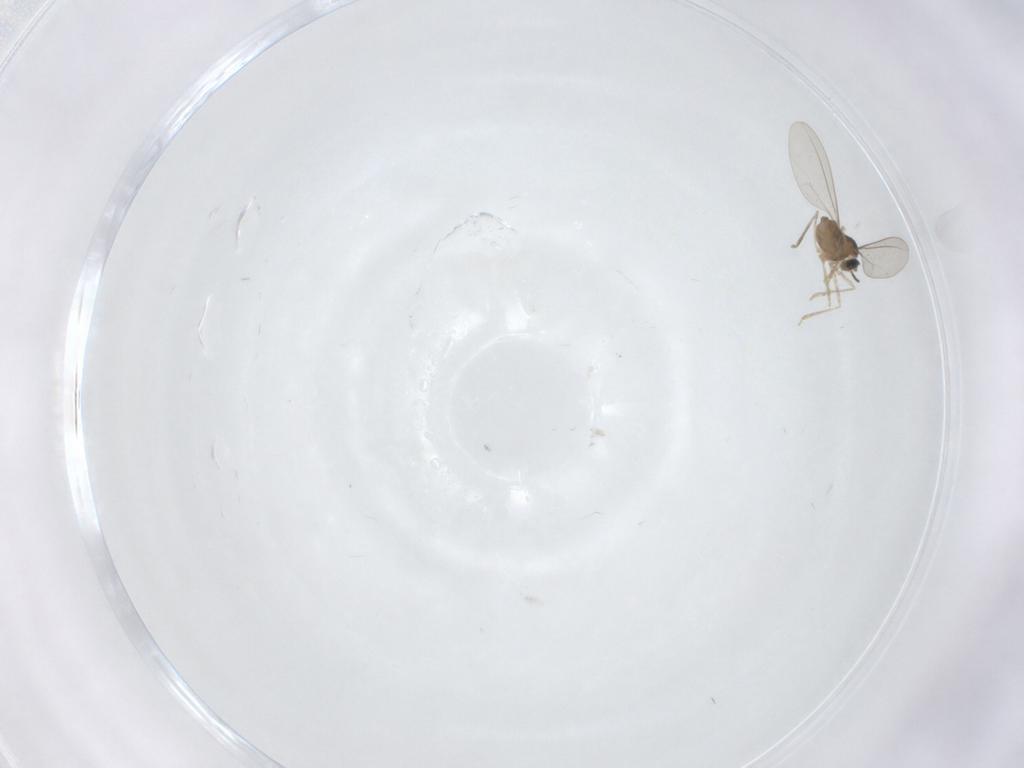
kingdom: Animalia
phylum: Arthropoda
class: Insecta
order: Diptera
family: Cecidomyiidae
